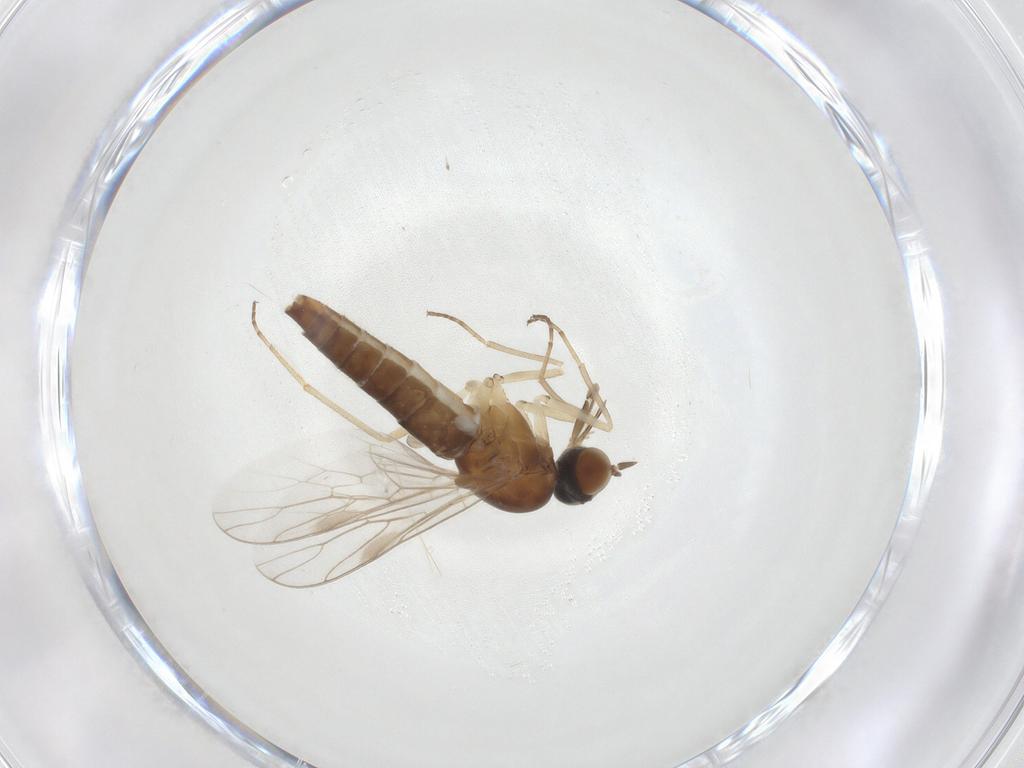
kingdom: Animalia
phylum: Arthropoda
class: Insecta
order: Diptera
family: Scenopinidae
